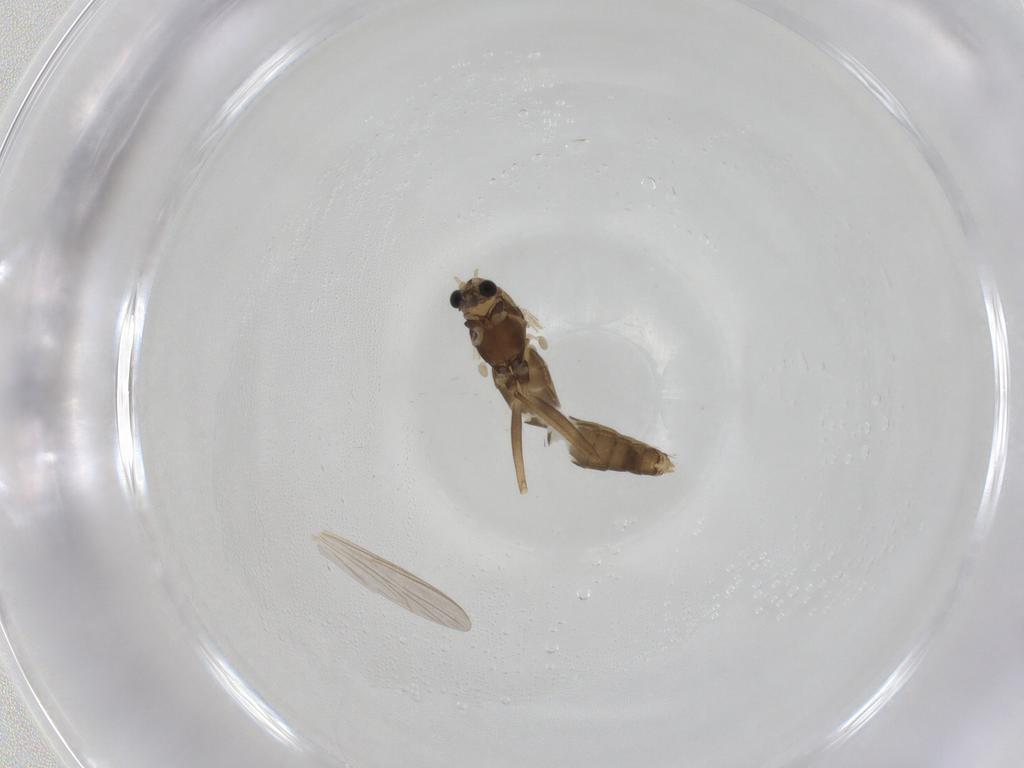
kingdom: Animalia
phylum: Arthropoda
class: Insecta
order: Diptera
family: Chironomidae
